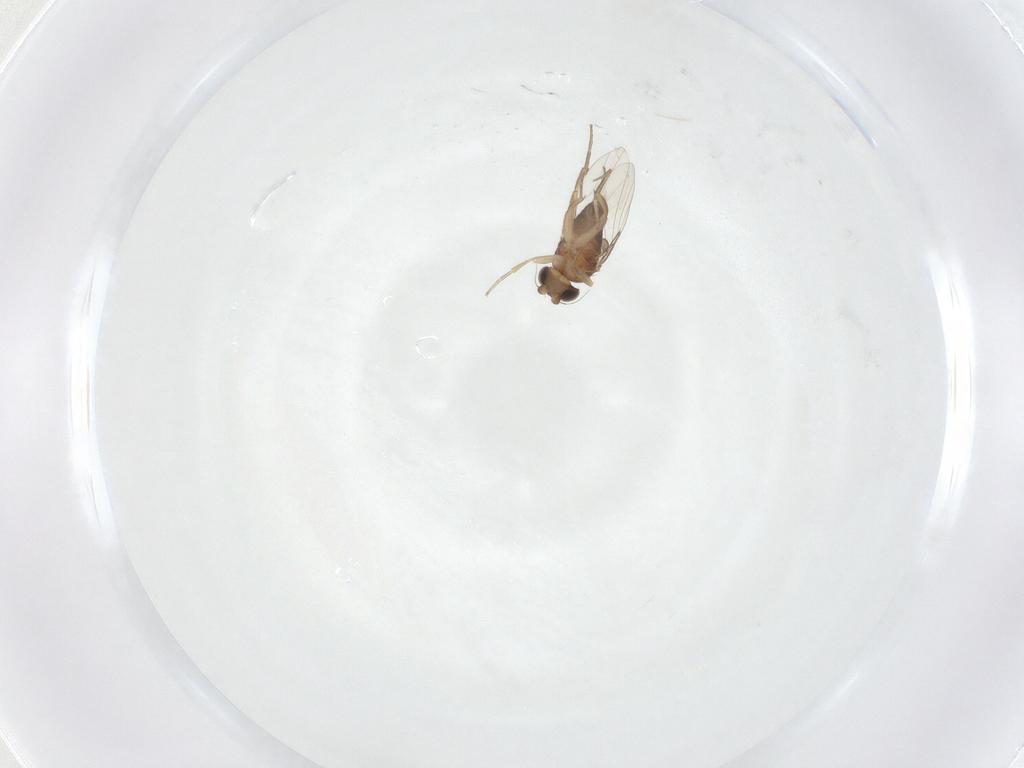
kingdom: Animalia
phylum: Arthropoda
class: Insecta
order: Diptera
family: Phoridae
